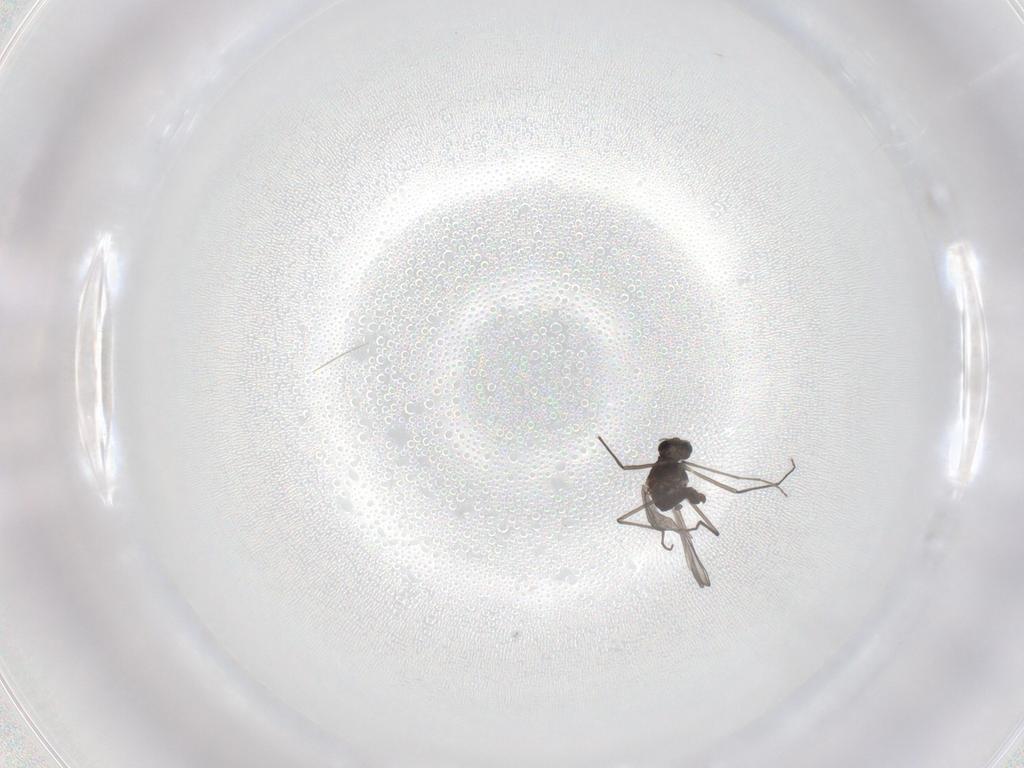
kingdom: Animalia
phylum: Arthropoda
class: Insecta
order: Diptera
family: Chironomidae
